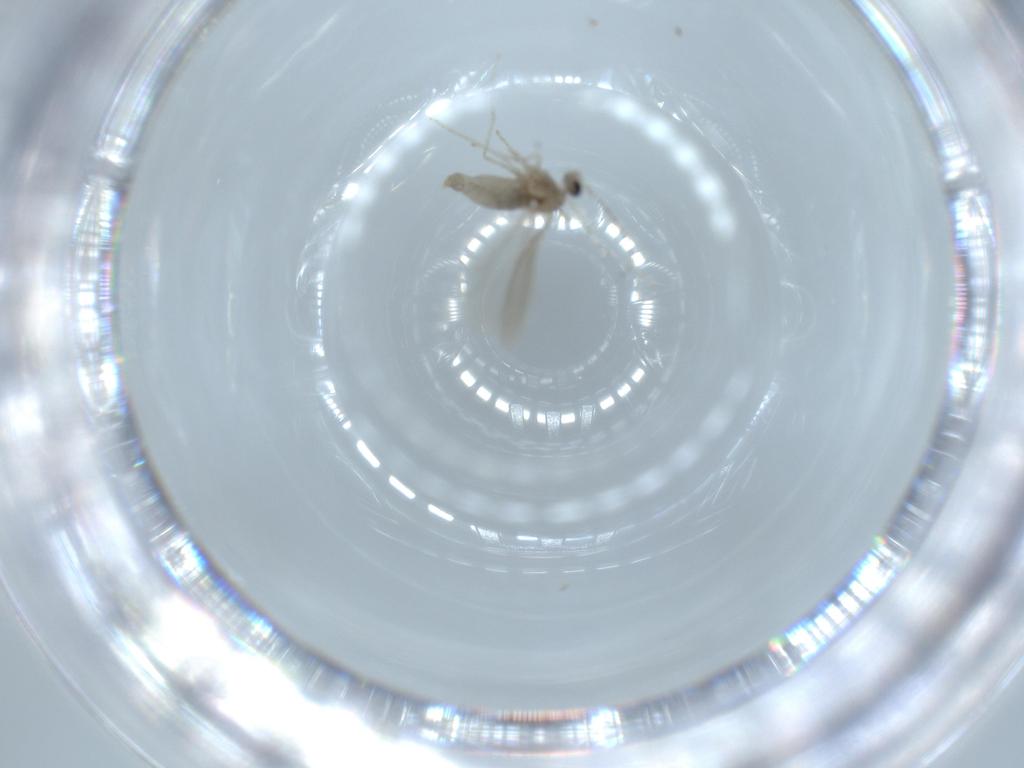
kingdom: Animalia
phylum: Arthropoda
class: Insecta
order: Diptera
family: Cecidomyiidae
